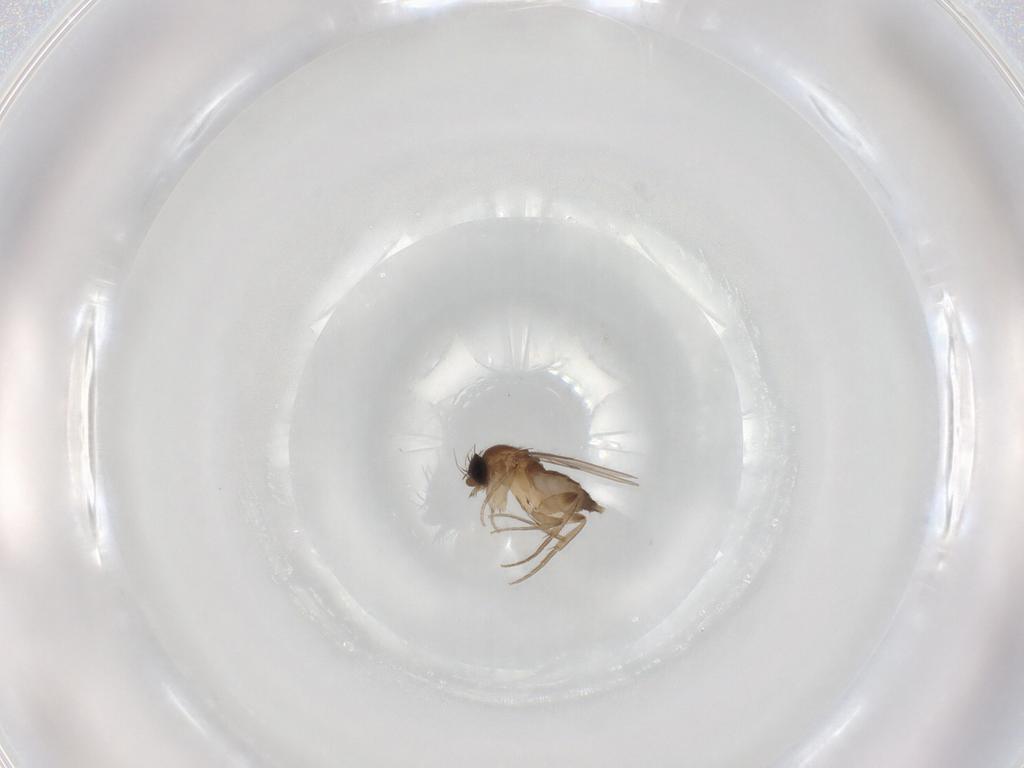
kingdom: Animalia
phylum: Arthropoda
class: Insecta
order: Diptera
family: Phoridae
